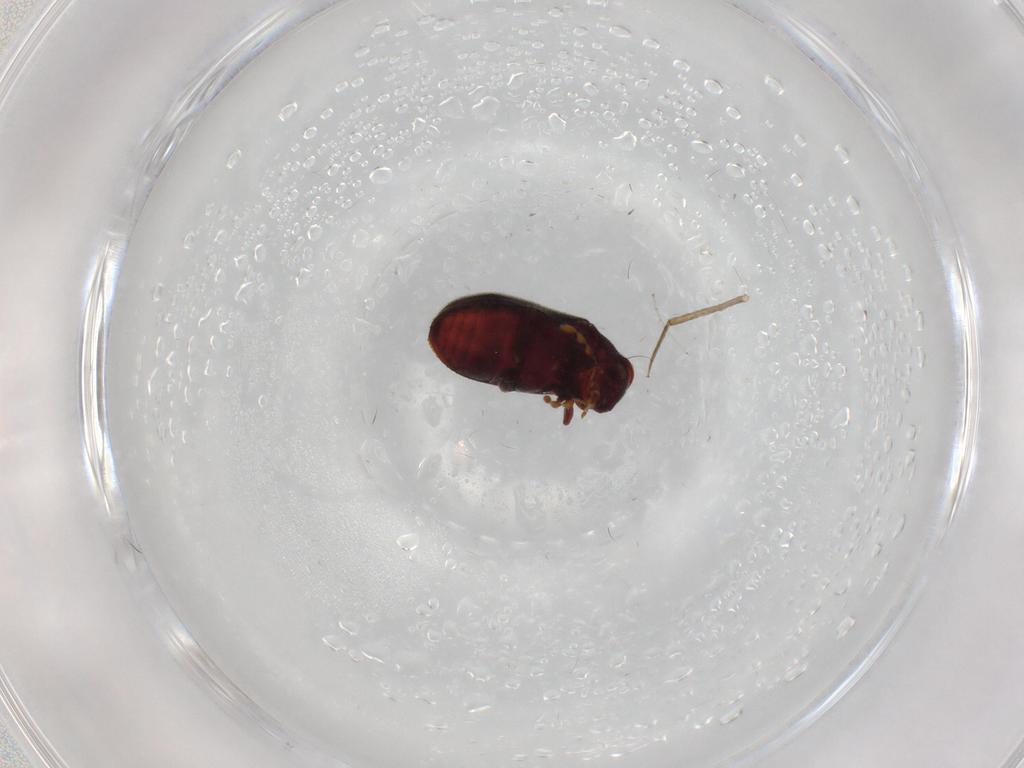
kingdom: Animalia
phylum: Arthropoda
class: Insecta
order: Coleoptera
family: Ptinidae
